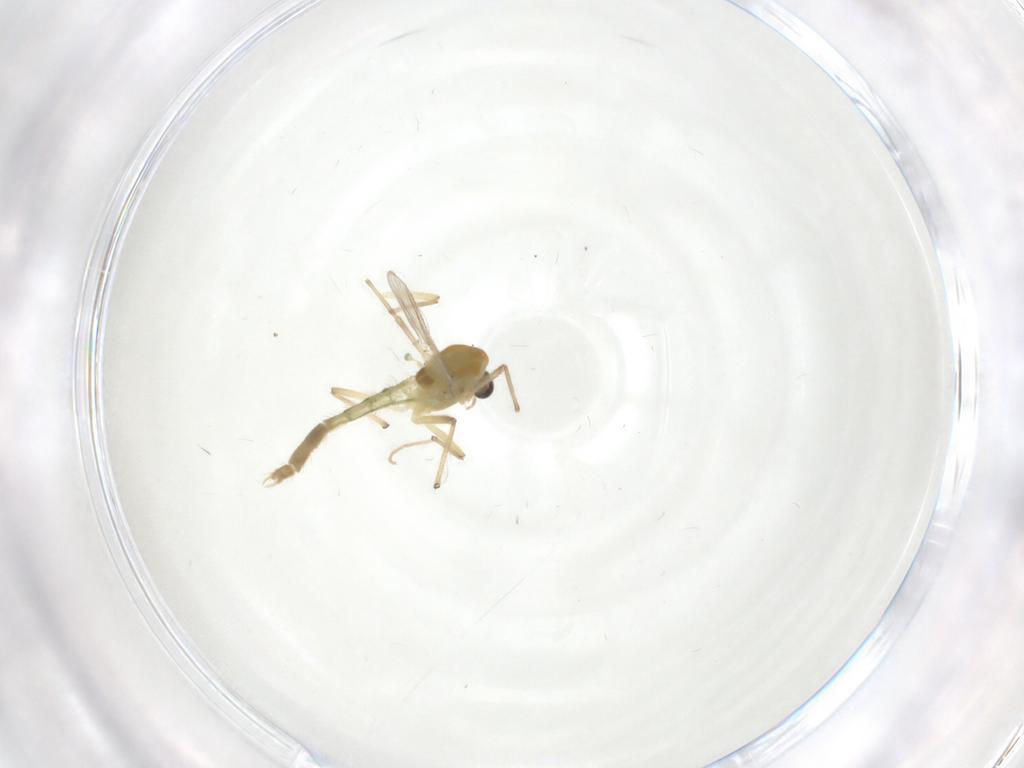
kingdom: Animalia
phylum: Arthropoda
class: Insecta
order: Diptera
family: Chironomidae
